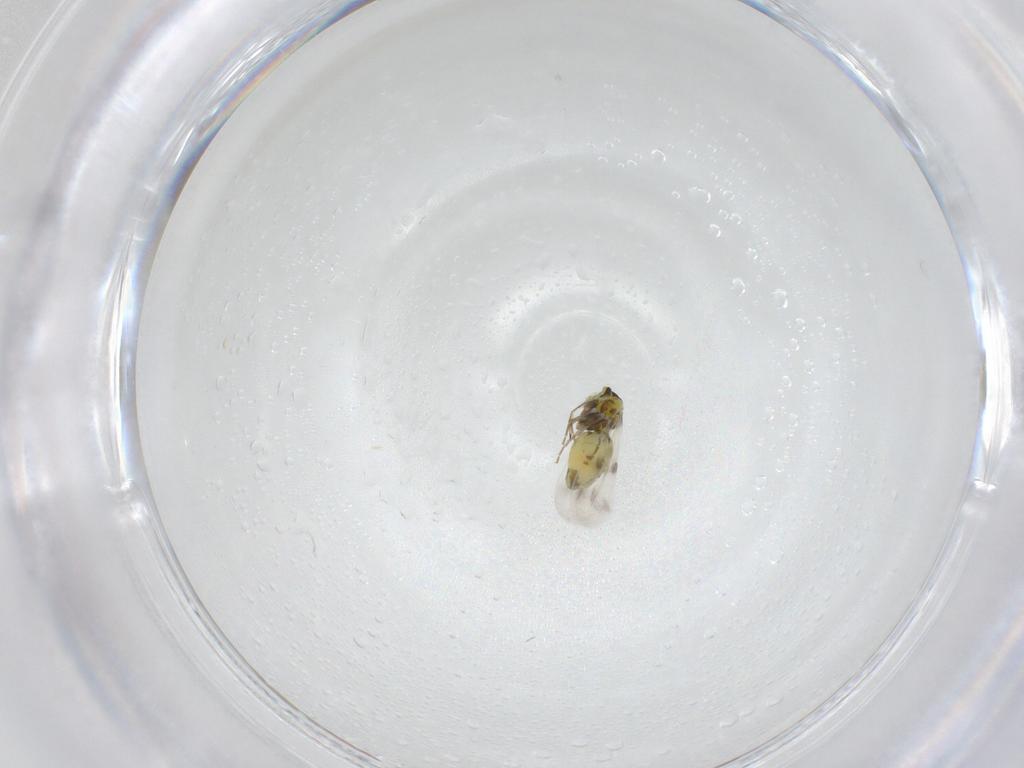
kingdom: Animalia
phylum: Arthropoda
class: Insecta
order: Hemiptera
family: Aleyrodidae
